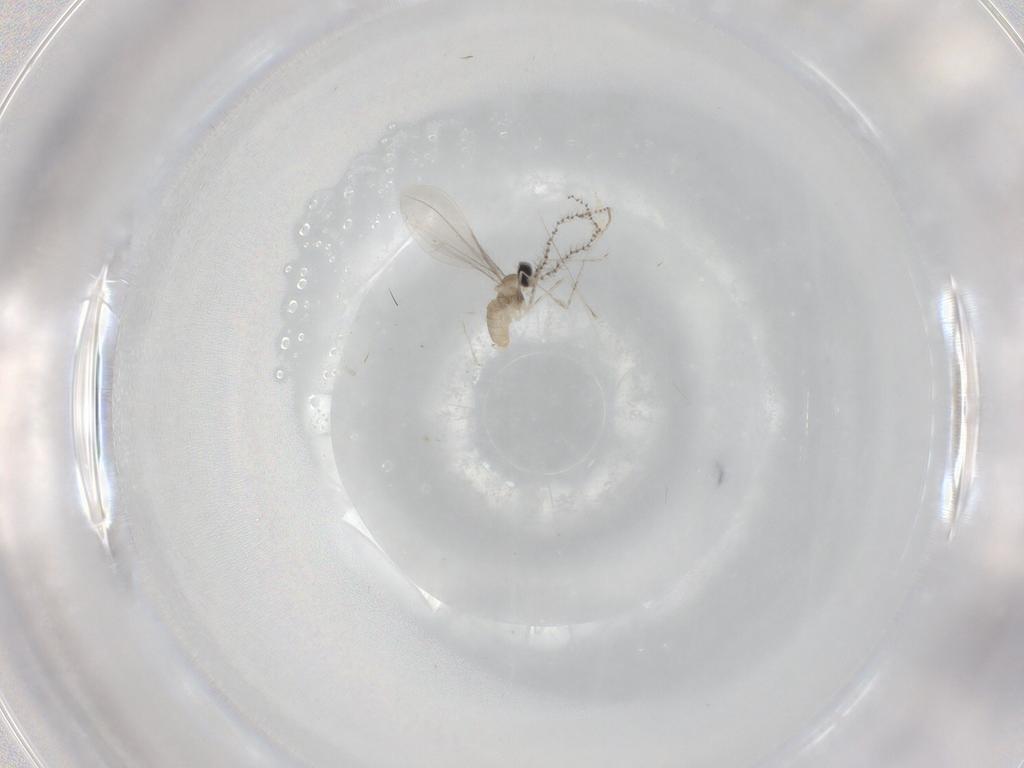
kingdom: Animalia
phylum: Arthropoda
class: Insecta
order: Diptera
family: Cecidomyiidae
